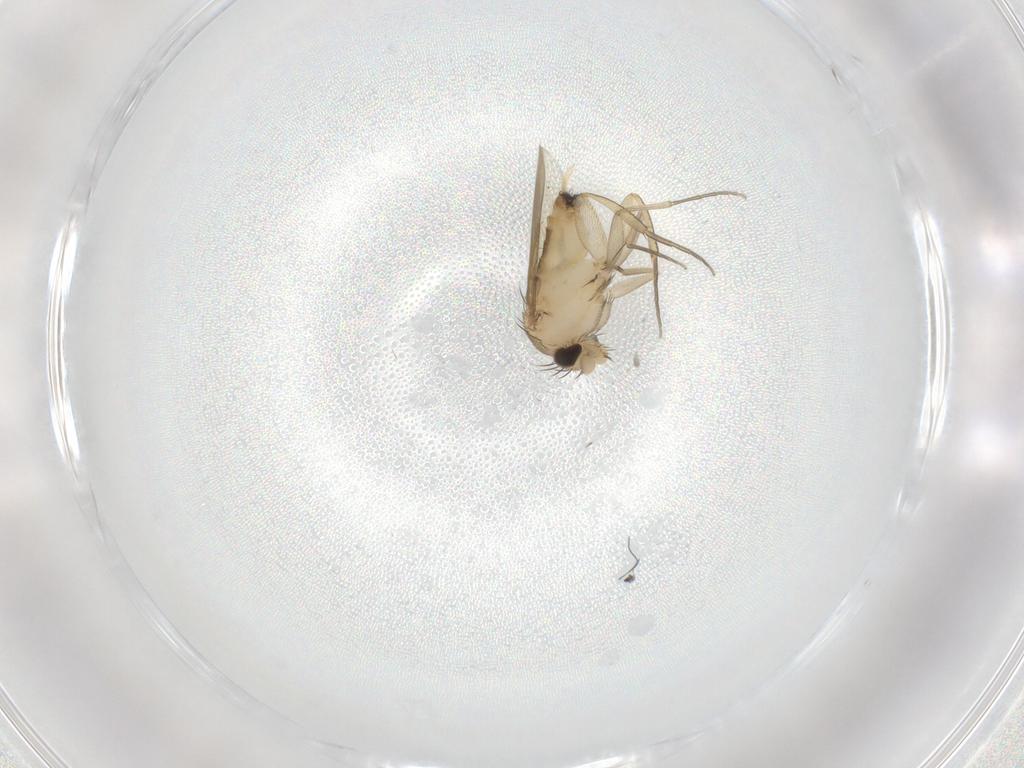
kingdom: Animalia
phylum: Arthropoda
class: Insecta
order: Diptera
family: Phoridae
